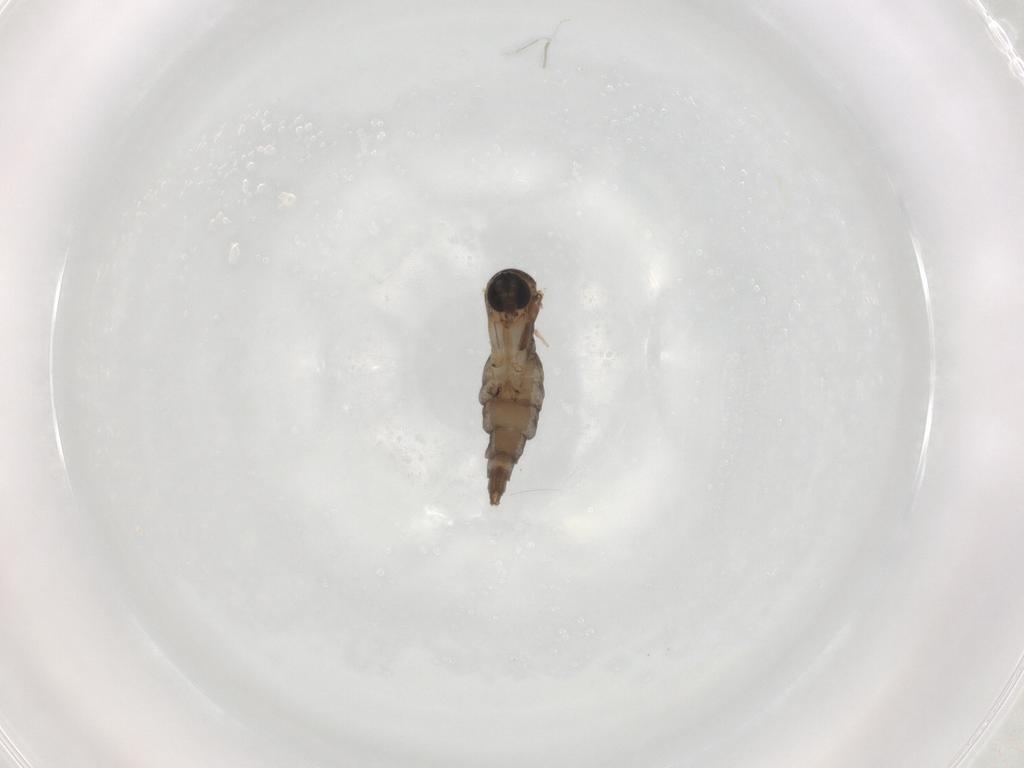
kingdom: Animalia
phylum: Arthropoda
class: Insecta
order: Diptera
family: Sciaridae
